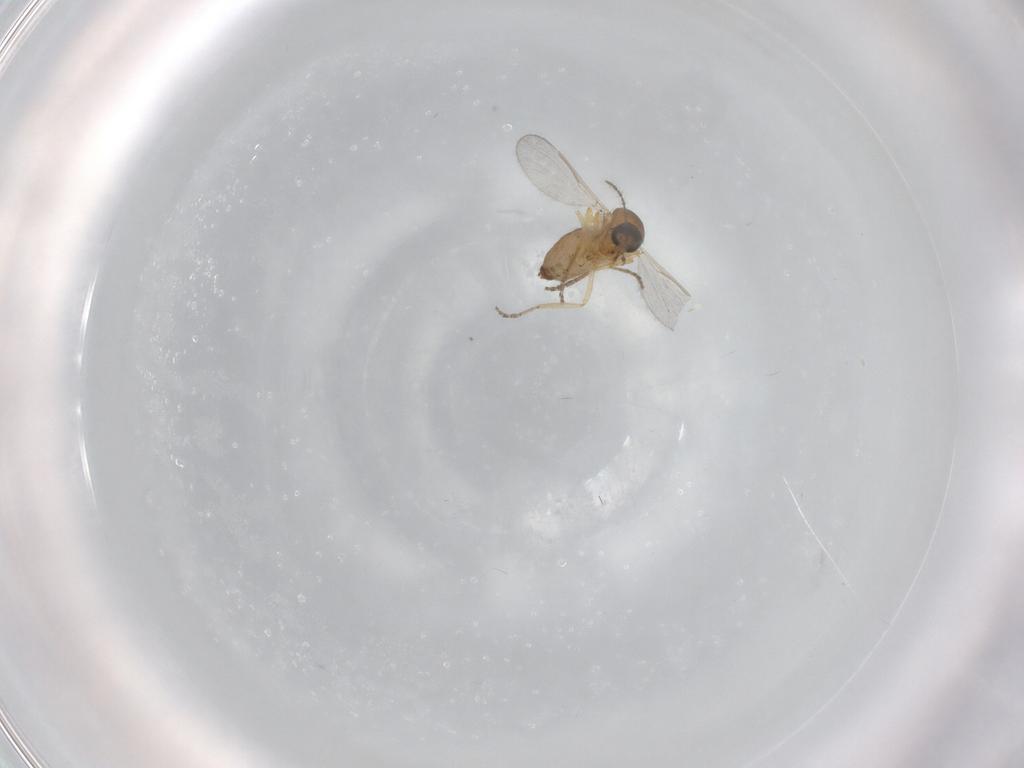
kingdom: Animalia
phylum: Arthropoda
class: Insecta
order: Diptera
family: Ceratopogonidae
